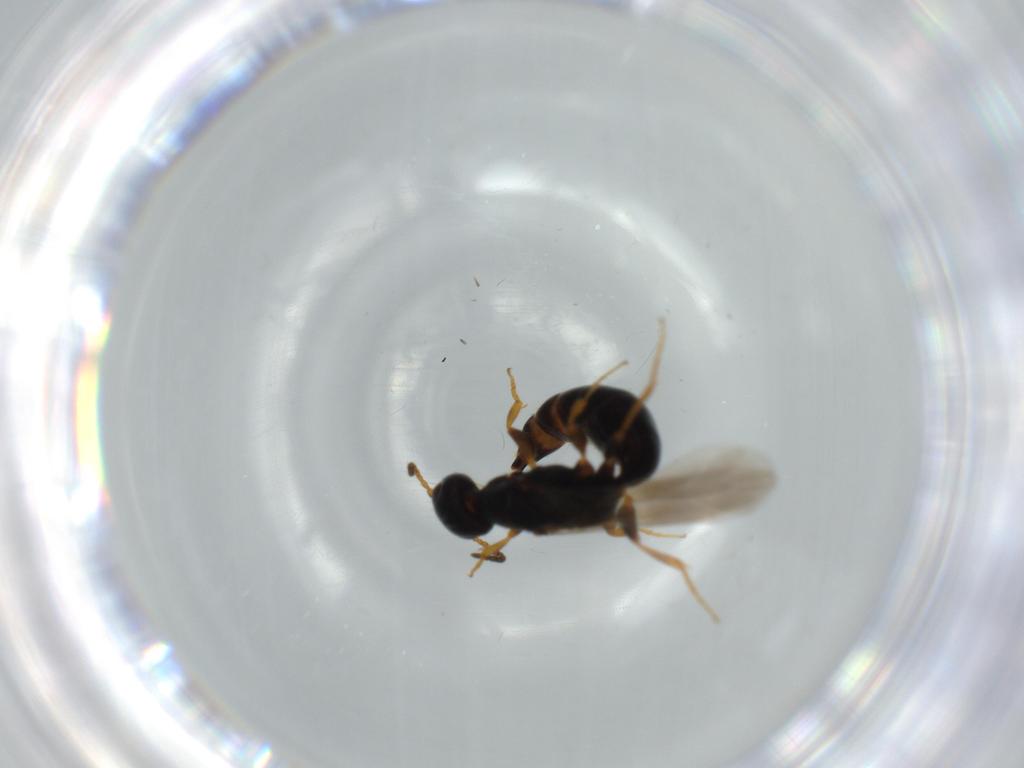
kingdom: Animalia
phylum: Arthropoda
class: Insecta
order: Hymenoptera
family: Bethylidae
